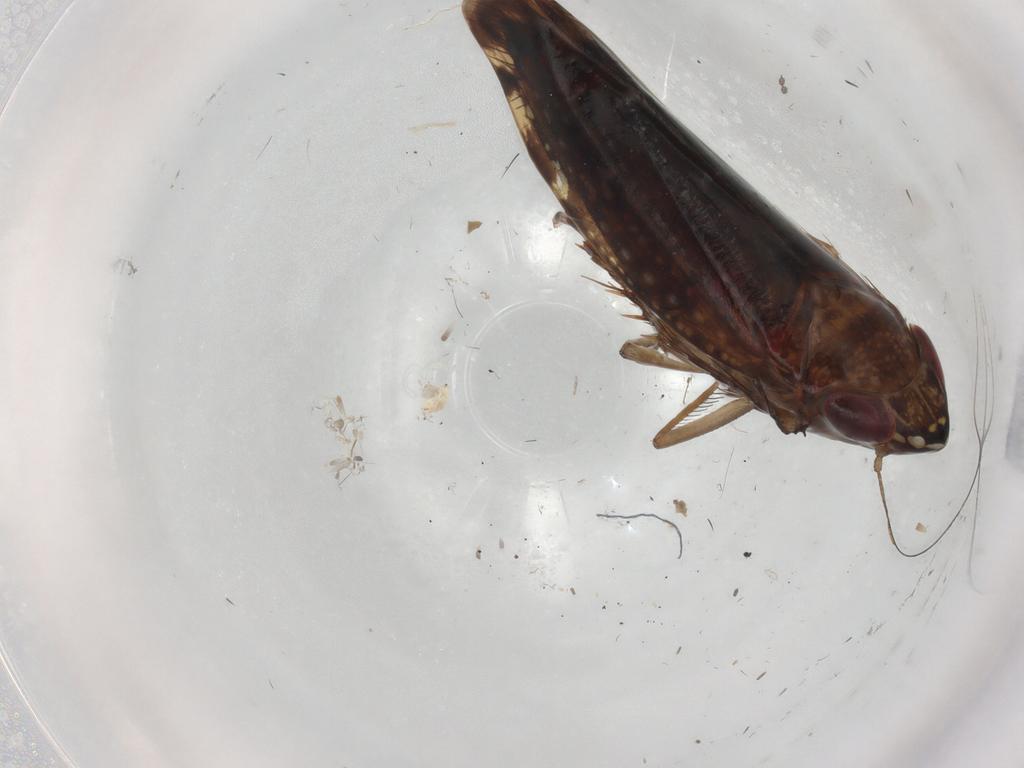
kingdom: Animalia
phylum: Arthropoda
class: Insecta
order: Hemiptera
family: Cicadellidae
